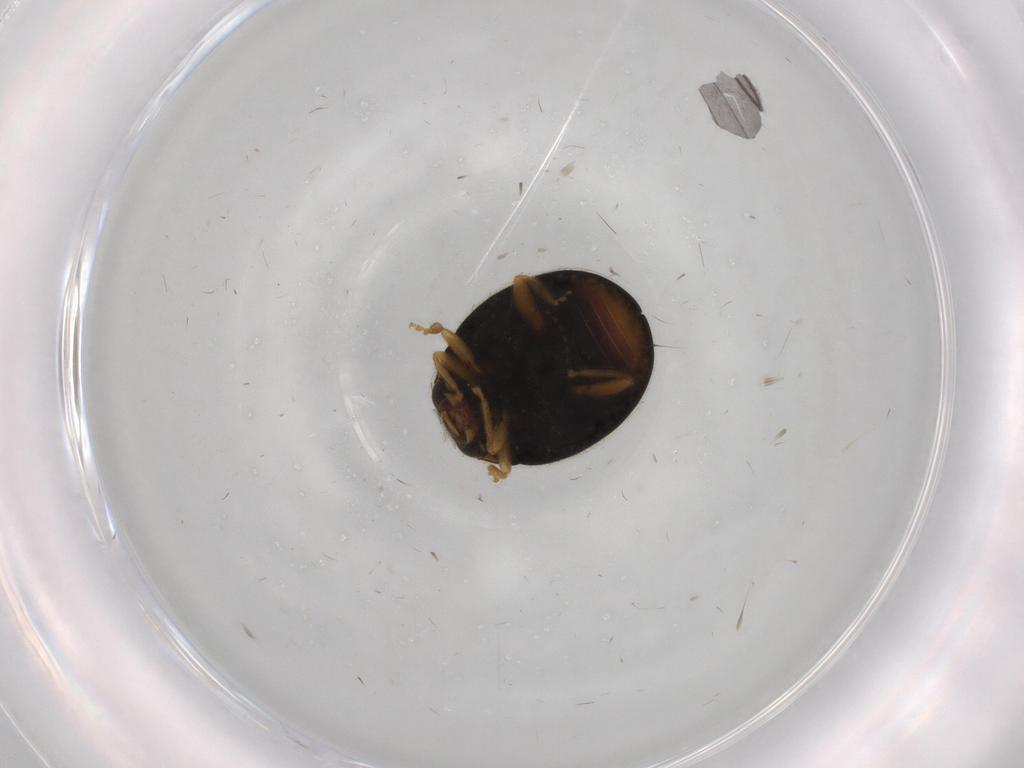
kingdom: Animalia
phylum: Arthropoda
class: Insecta
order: Coleoptera
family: Coccinellidae
